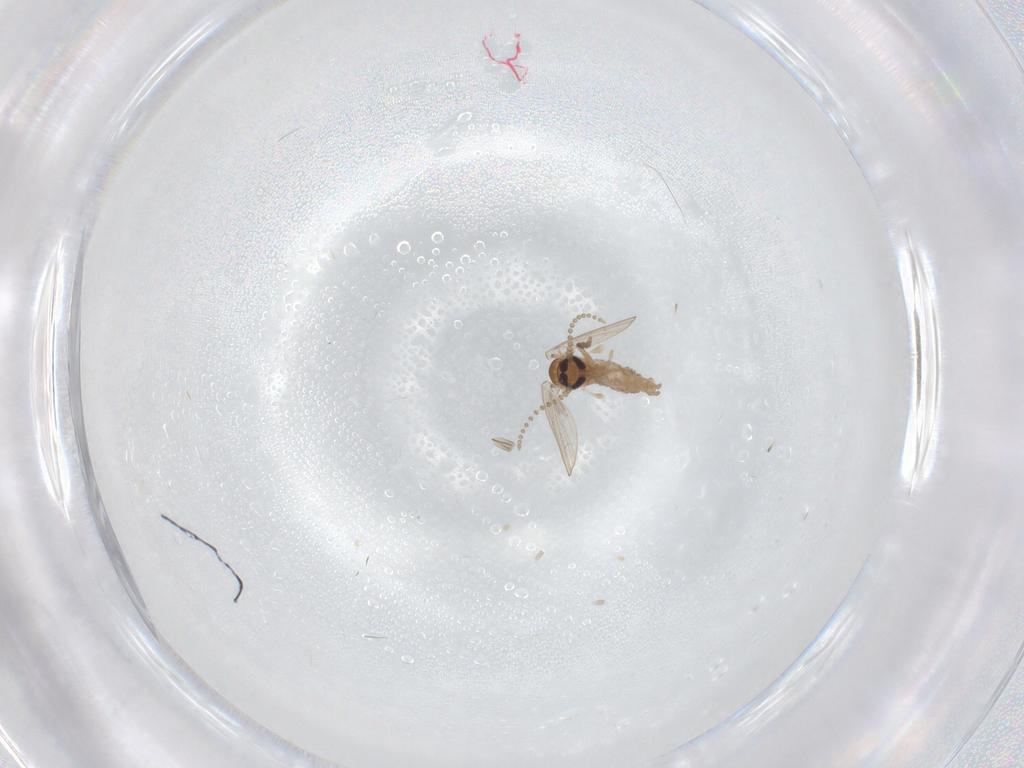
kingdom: Animalia
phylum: Arthropoda
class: Insecta
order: Diptera
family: Psychodidae
